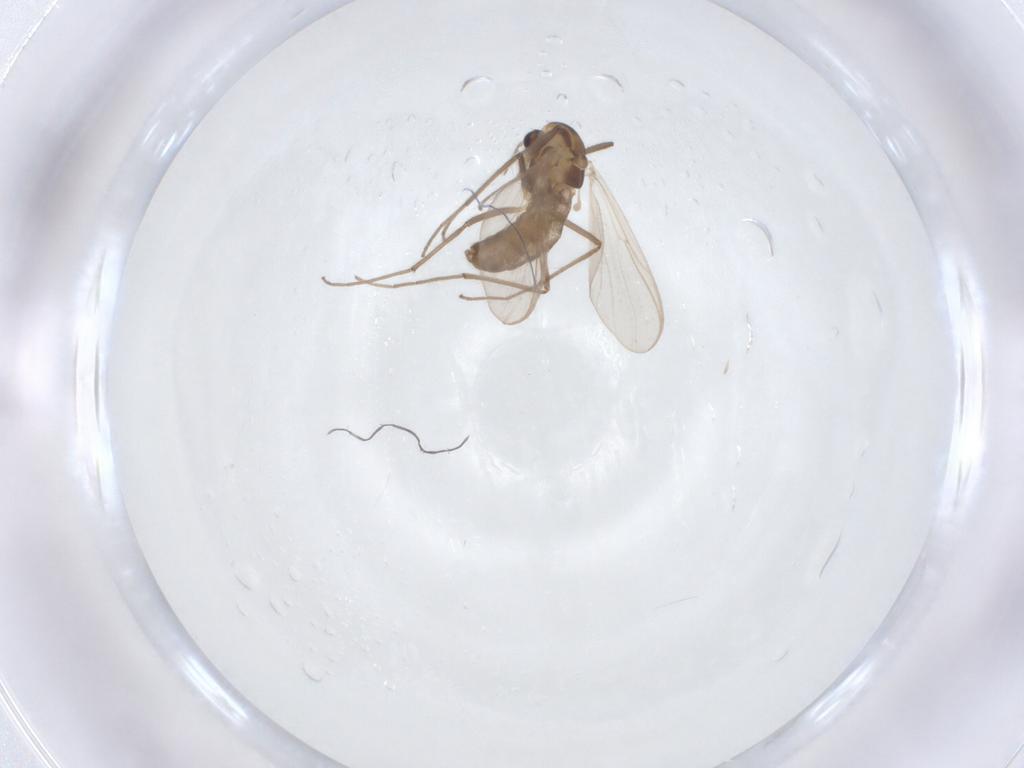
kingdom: Animalia
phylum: Arthropoda
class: Insecta
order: Diptera
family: Chironomidae
